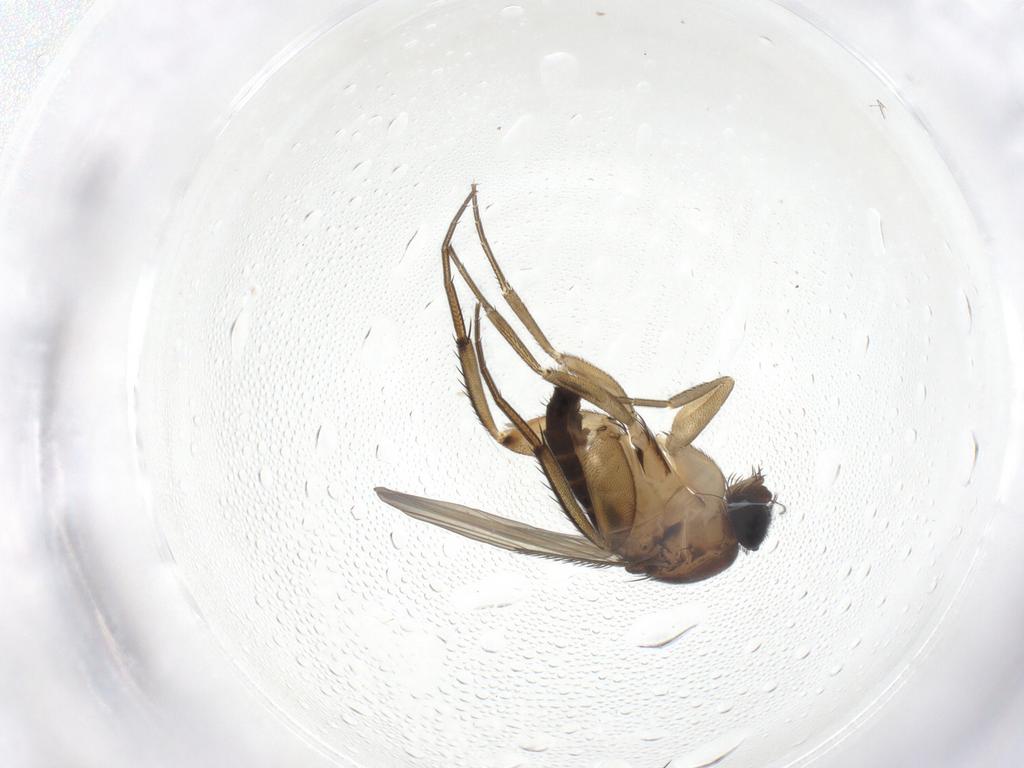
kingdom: Animalia
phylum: Arthropoda
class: Insecta
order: Diptera
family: Phoridae
